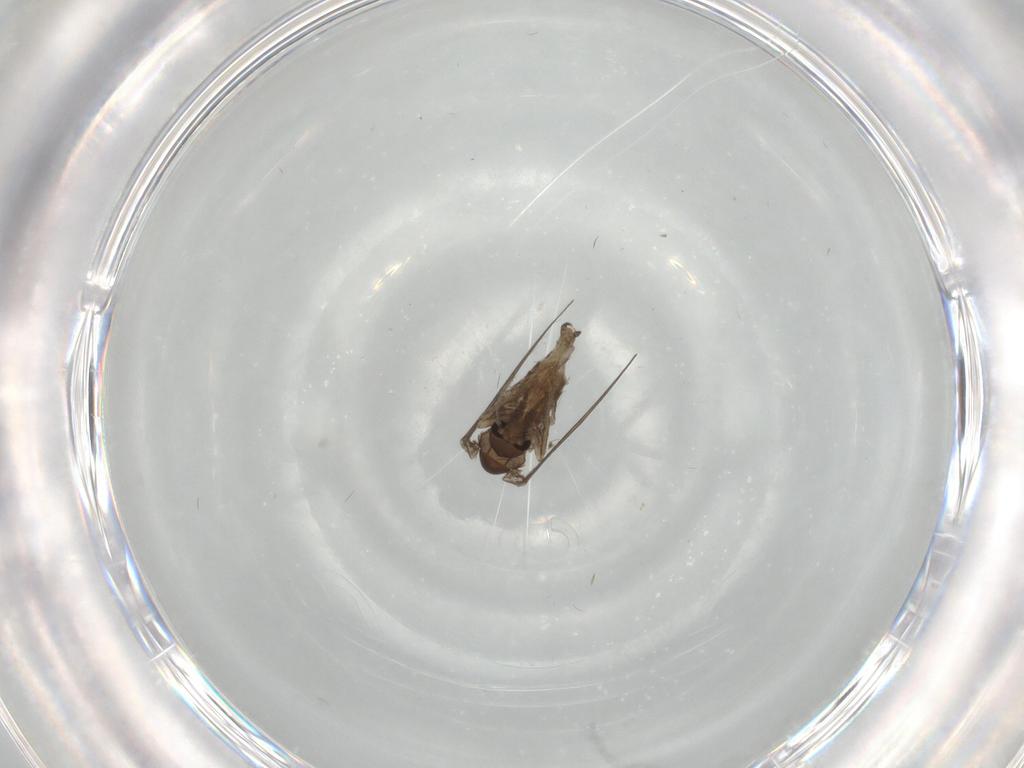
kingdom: Animalia
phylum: Arthropoda
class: Insecta
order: Diptera
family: Psychodidae
